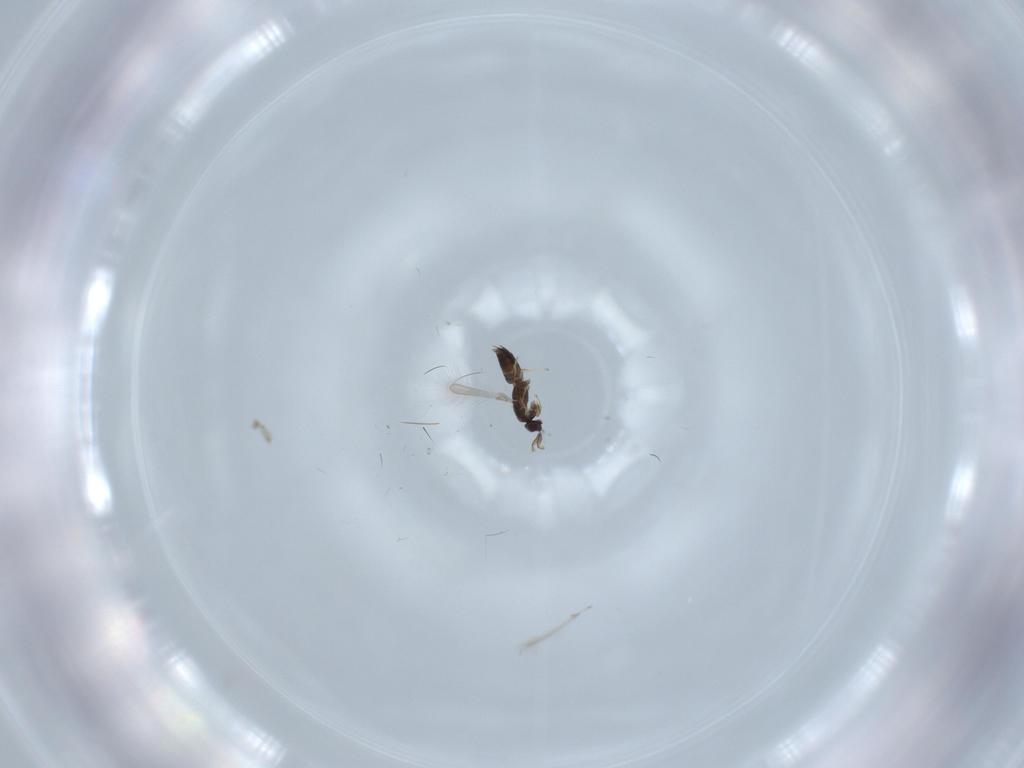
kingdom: Animalia
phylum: Arthropoda
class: Insecta
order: Hymenoptera
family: Mymaridae
